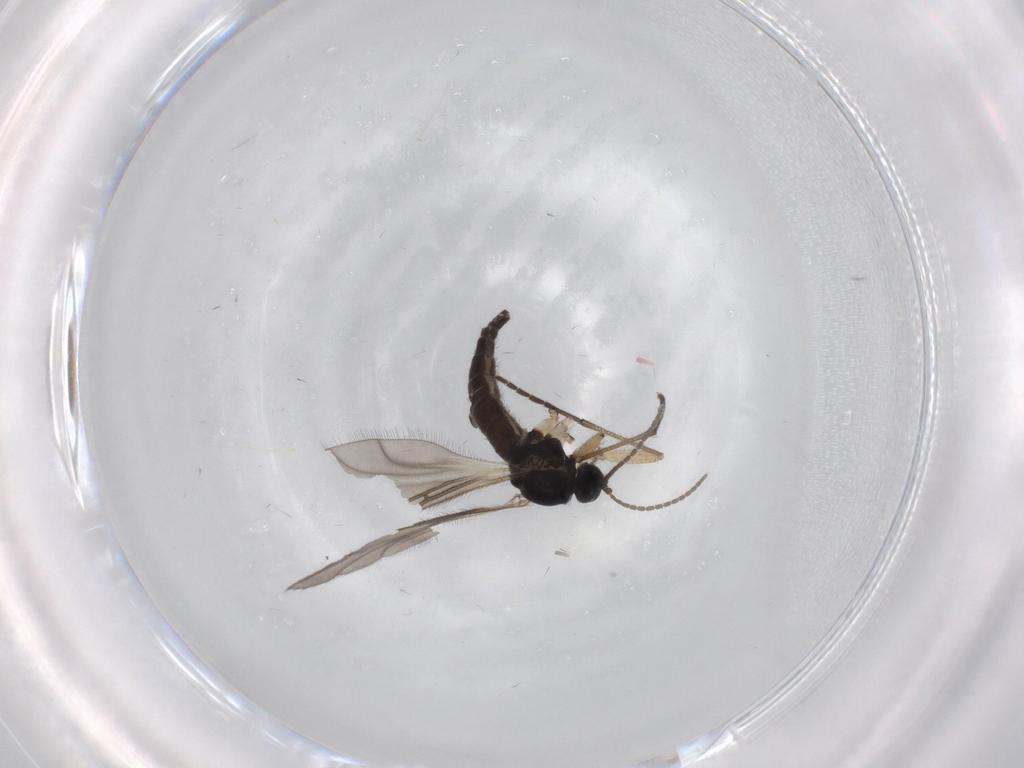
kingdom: Animalia
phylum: Arthropoda
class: Insecta
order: Diptera
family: Sciaridae
